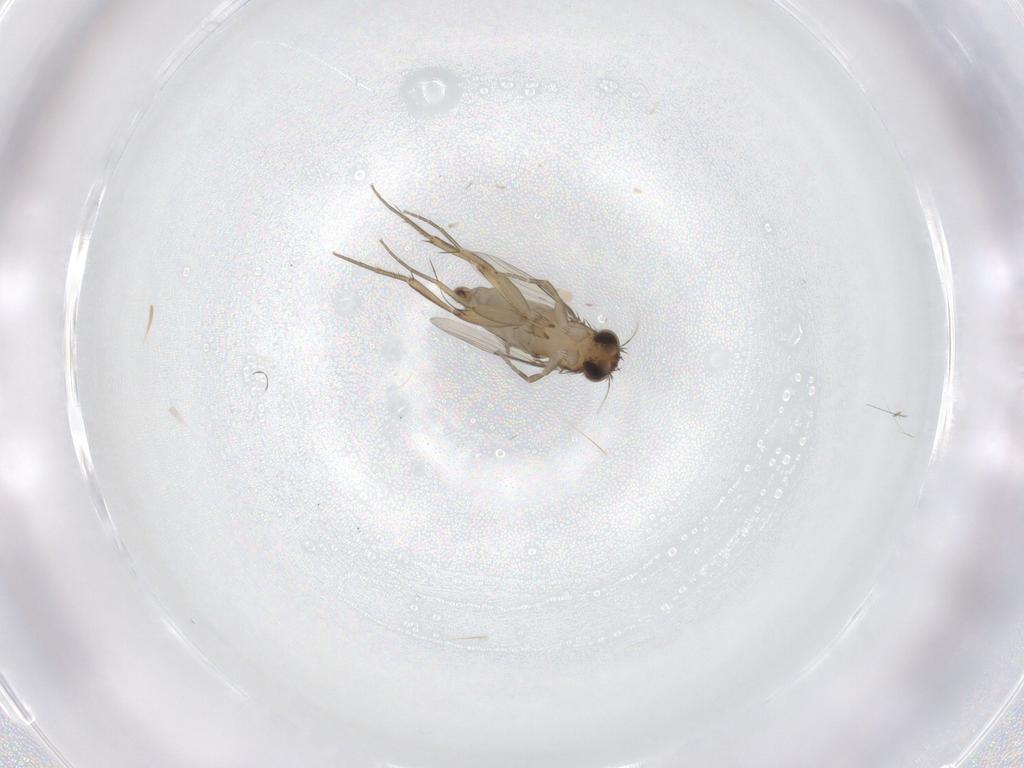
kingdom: Animalia
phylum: Arthropoda
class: Insecta
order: Diptera
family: Phoridae
